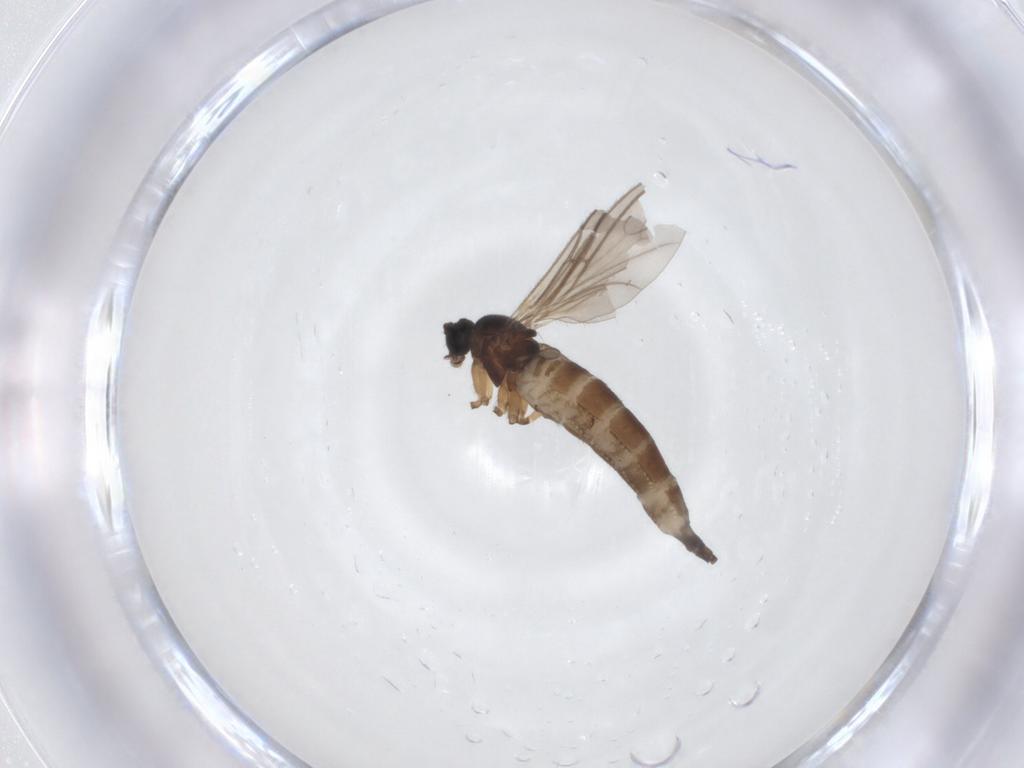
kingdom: Animalia
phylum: Arthropoda
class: Insecta
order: Diptera
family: Sciaridae
